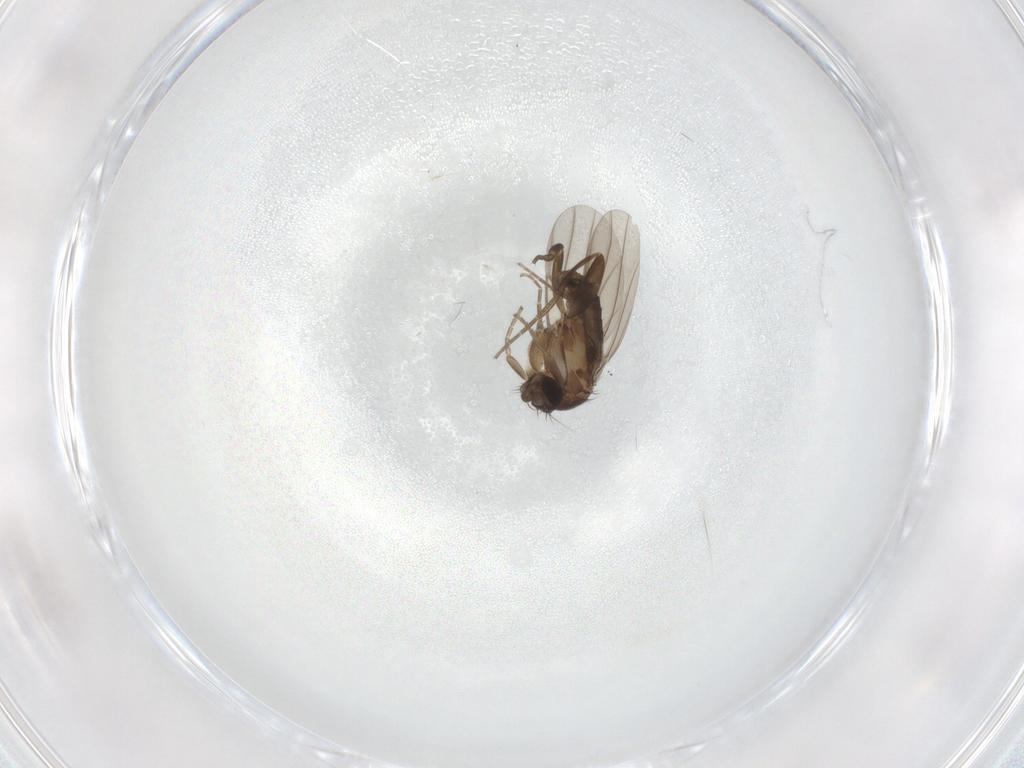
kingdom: Animalia
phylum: Arthropoda
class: Insecta
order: Diptera
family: Phoridae
